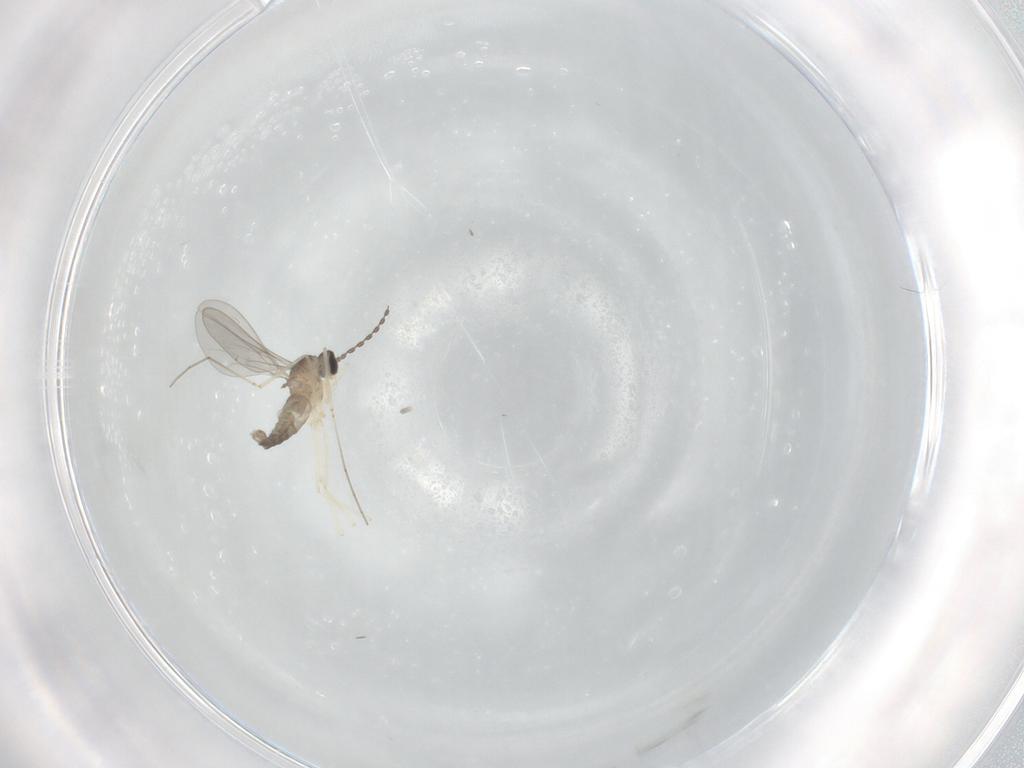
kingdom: Animalia
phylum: Arthropoda
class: Insecta
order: Diptera
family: Cecidomyiidae
